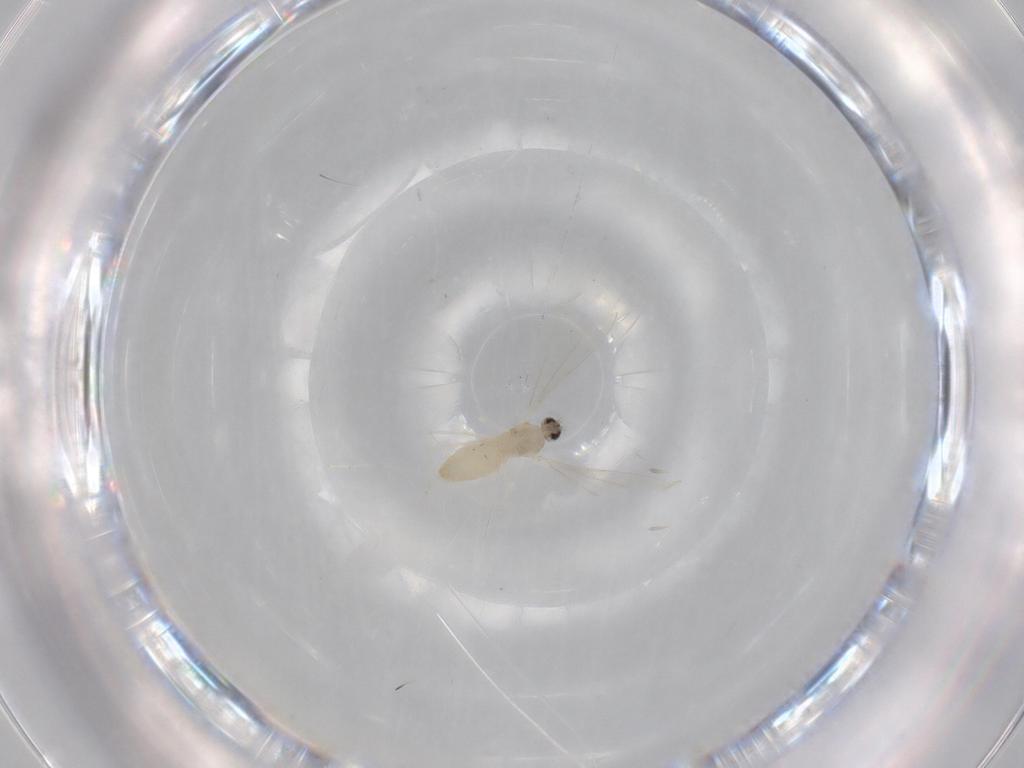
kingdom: Animalia
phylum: Arthropoda
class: Insecta
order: Diptera
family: Cecidomyiidae
